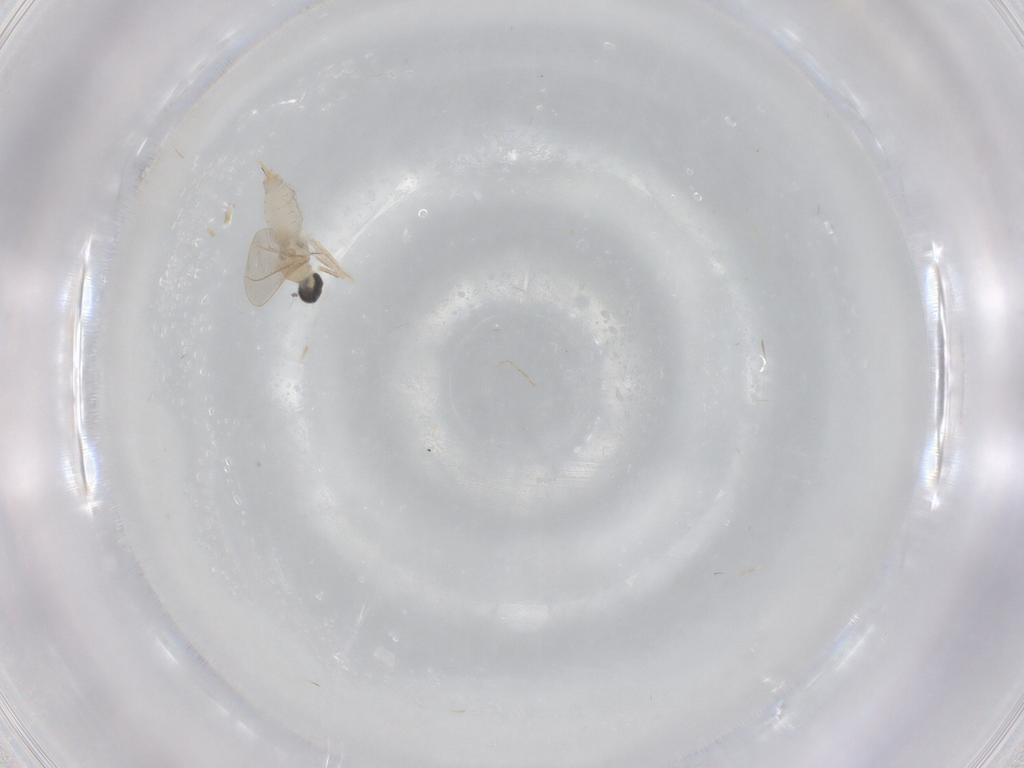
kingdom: Animalia
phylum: Arthropoda
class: Insecta
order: Diptera
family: Cecidomyiidae
